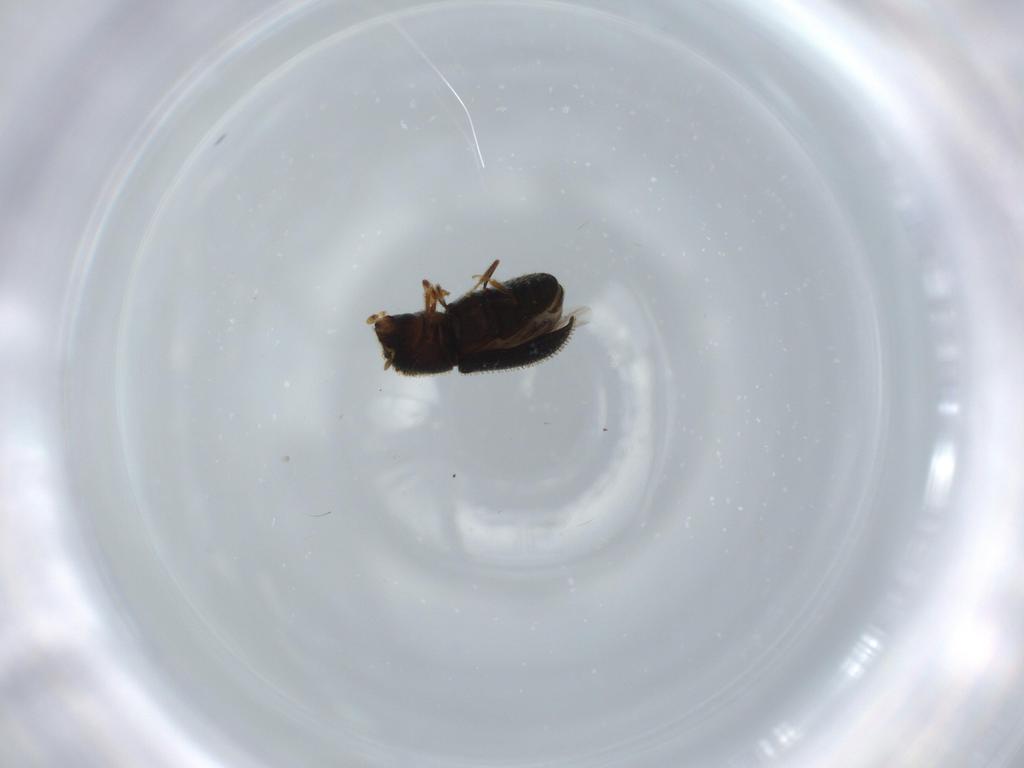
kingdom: Animalia
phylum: Arthropoda
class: Insecta
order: Coleoptera
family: Curculionidae
